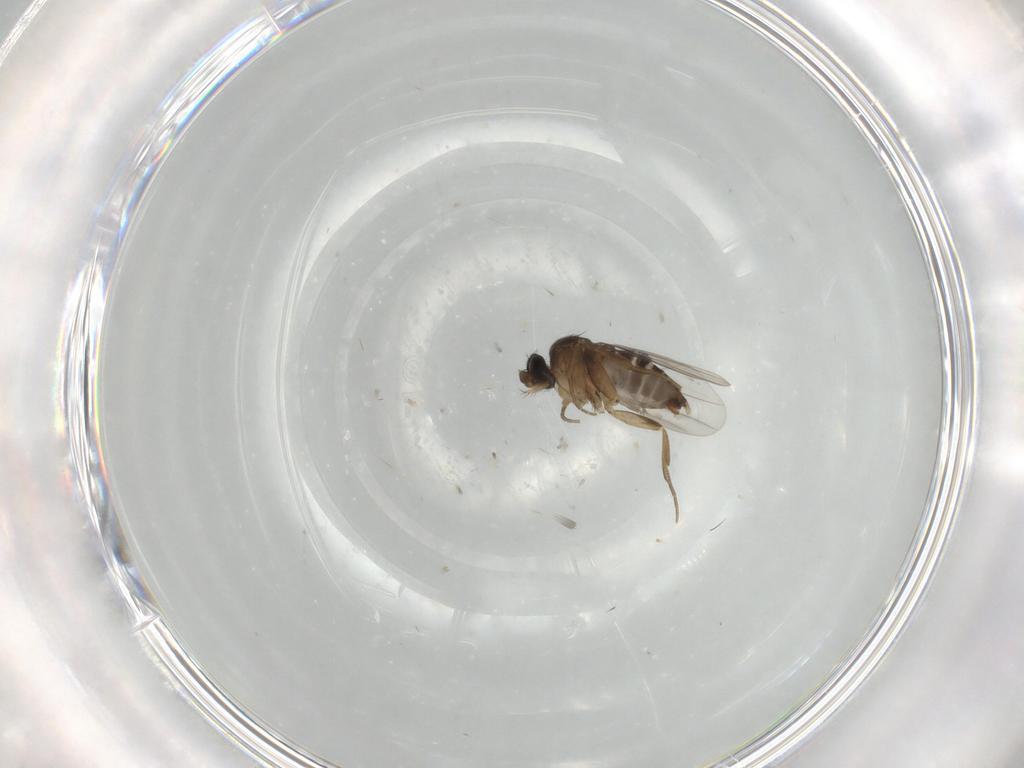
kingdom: Animalia
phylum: Arthropoda
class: Insecta
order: Diptera
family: Phoridae
